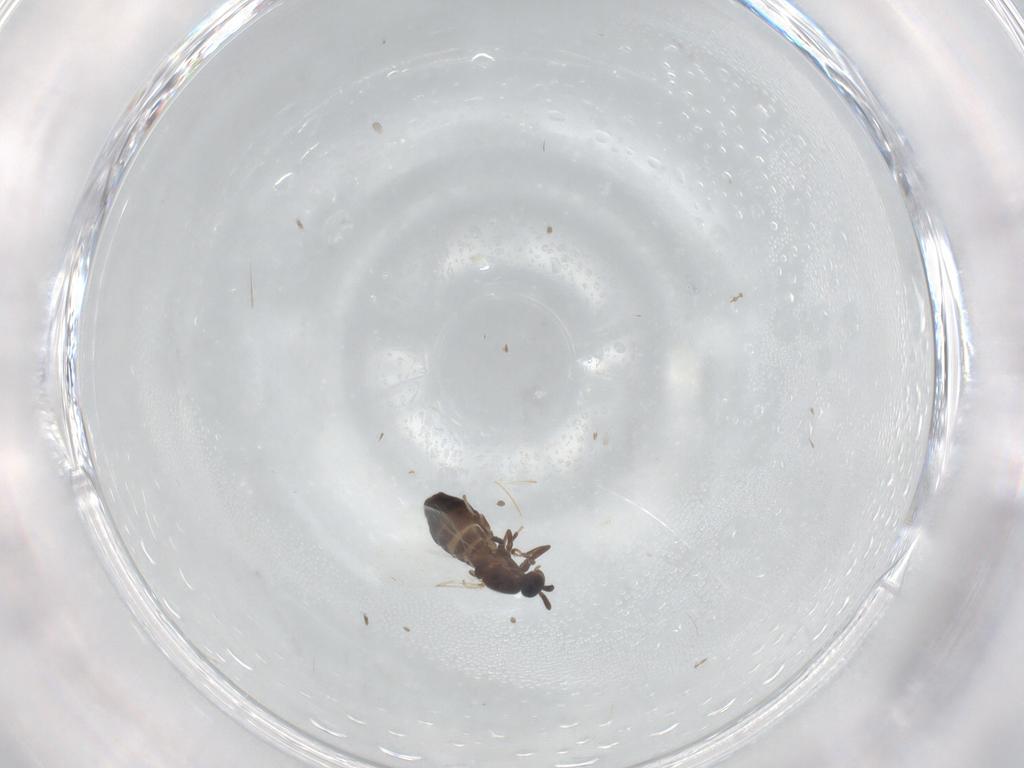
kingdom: Animalia
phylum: Arthropoda
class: Insecta
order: Diptera
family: Scatopsidae
